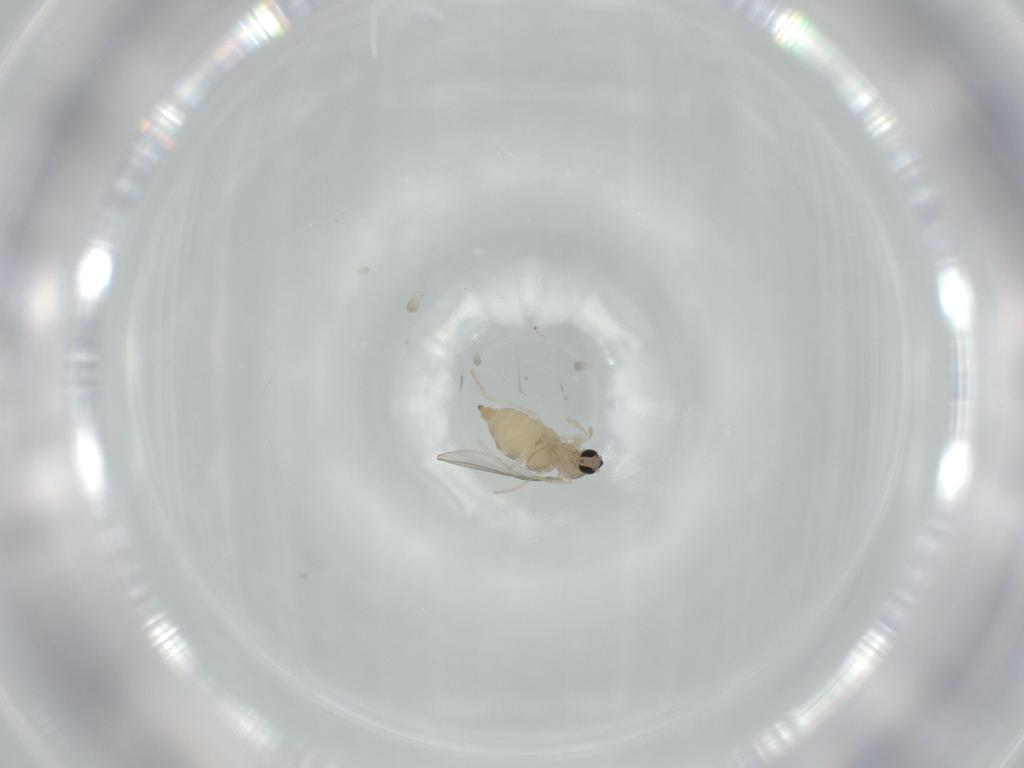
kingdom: Animalia
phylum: Arthropoda
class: Insecta
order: Diptera
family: Cecidomyiidae
